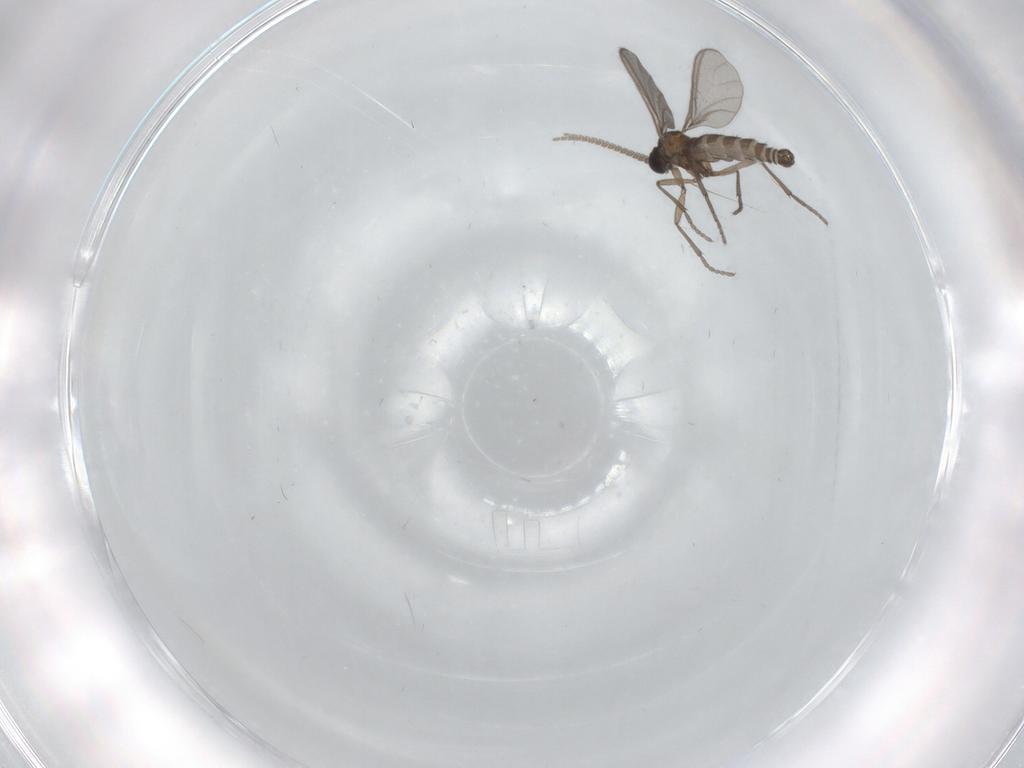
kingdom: Animalia
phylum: Arthropoda
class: Insecta
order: Diptera
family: Sciaridae
